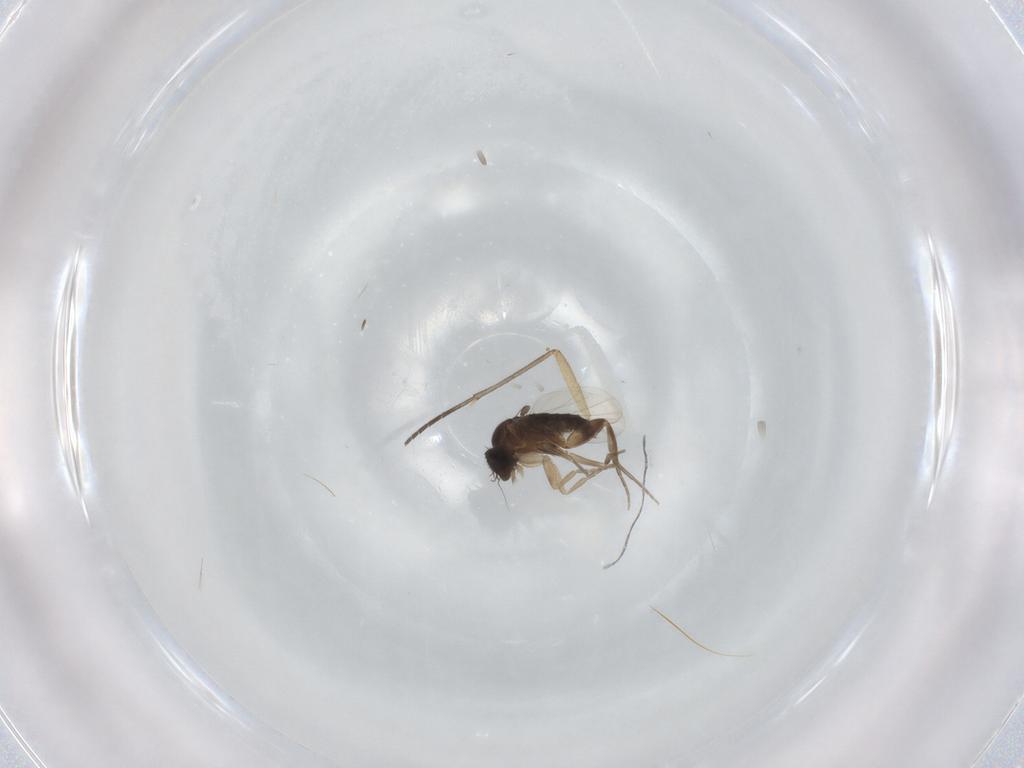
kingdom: Animalia
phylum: Arthropoda
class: Insecta
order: Diptera
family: Sciaridae
